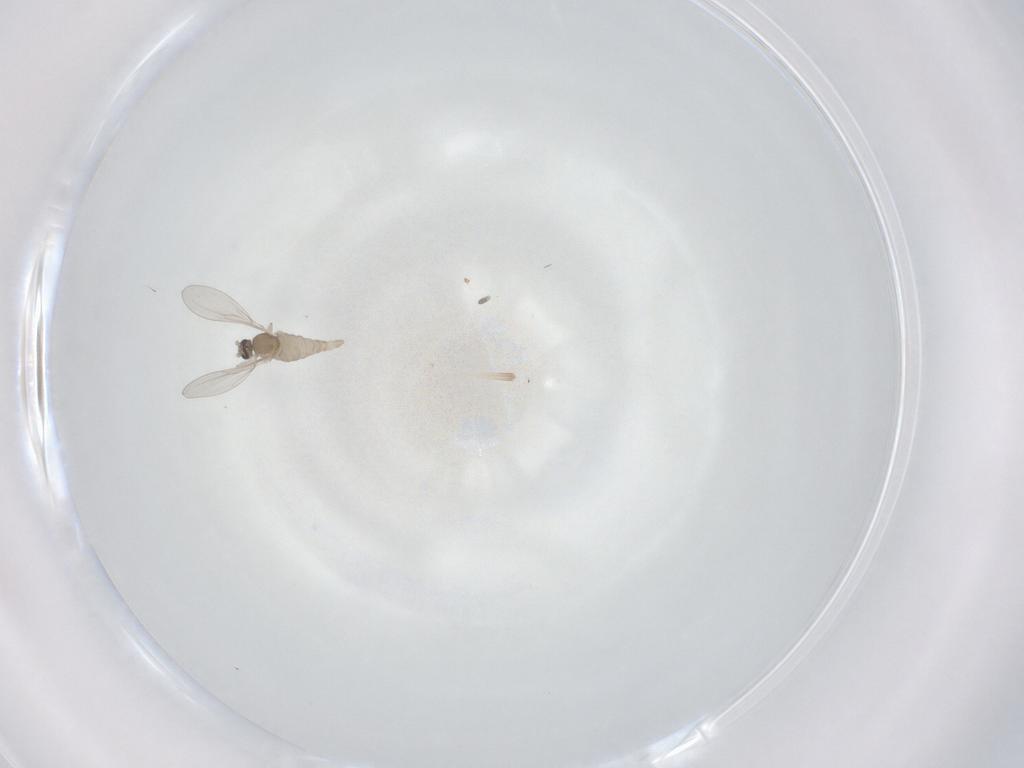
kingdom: Animalia
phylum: Arthropoda
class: Insecta
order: Diptera
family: Cecidomyiidae
